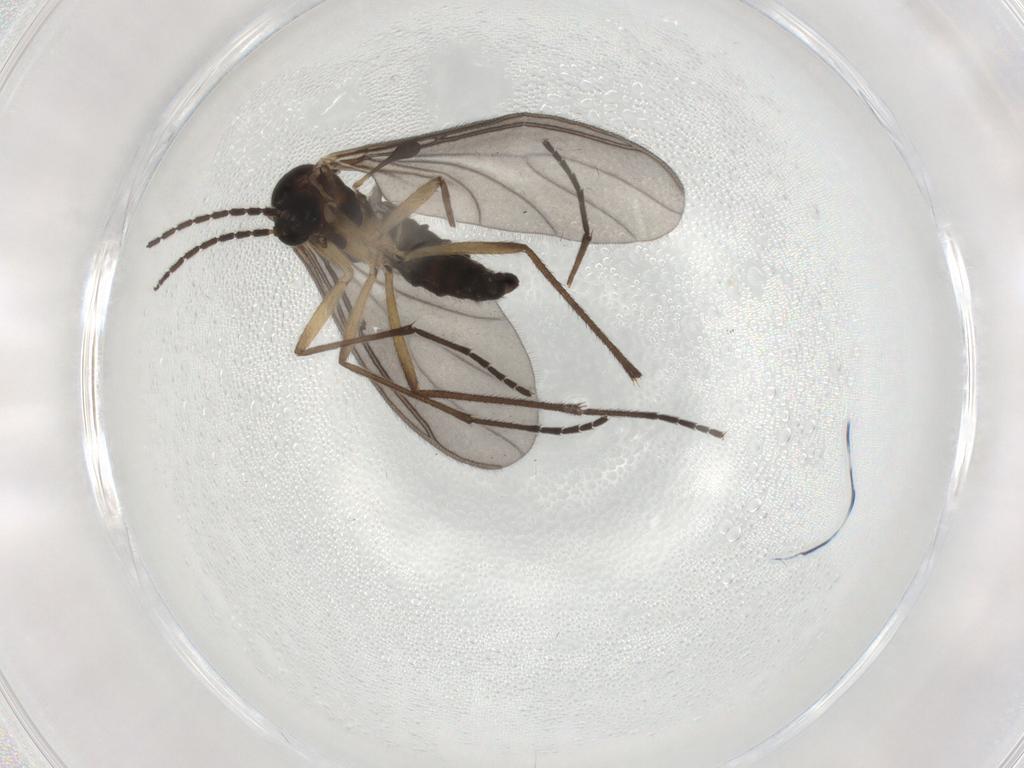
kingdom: Animalia
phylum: Arthropoda
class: Insecta
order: Diptera
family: Sciaridae
